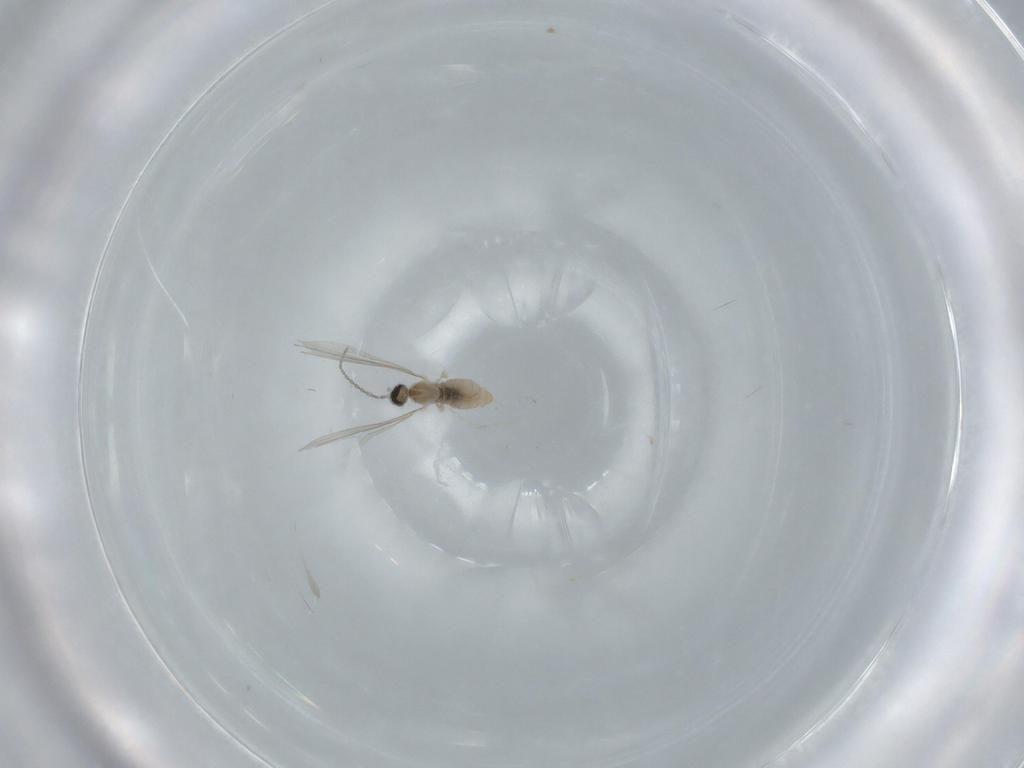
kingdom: Animalia
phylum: Arthropoda
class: Insecta
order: Diptera
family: Cecidomyiidae
